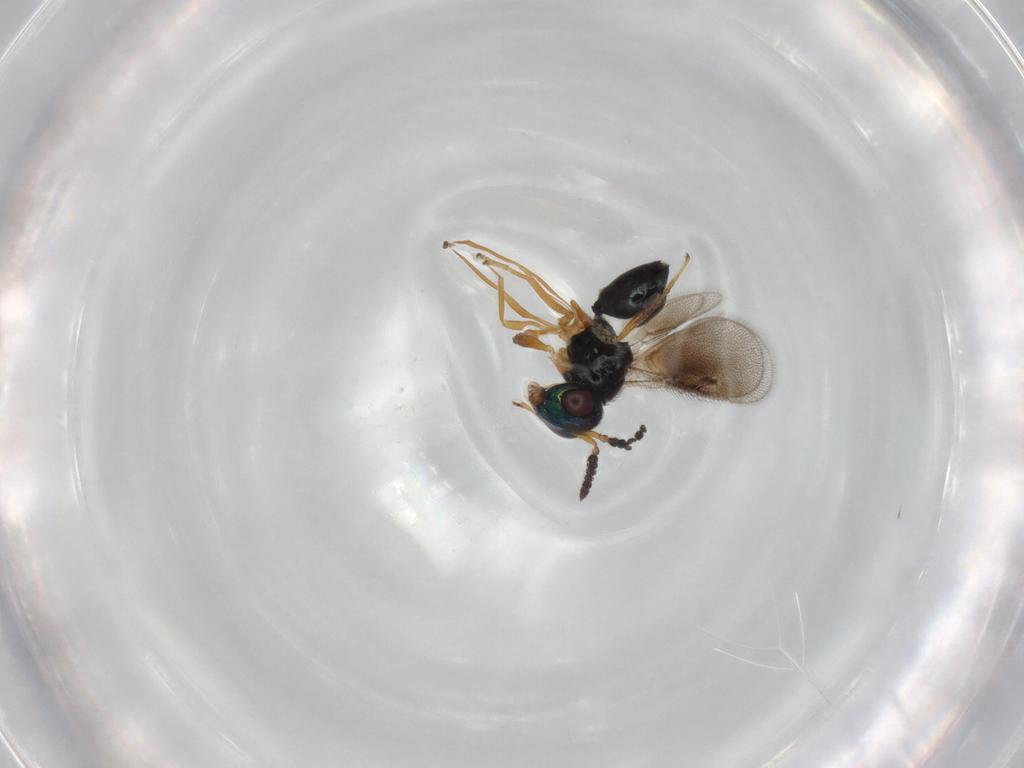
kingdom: Animalia
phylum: Arthropoda
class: Insecta
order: Hymenoptera
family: Pteromalidae
